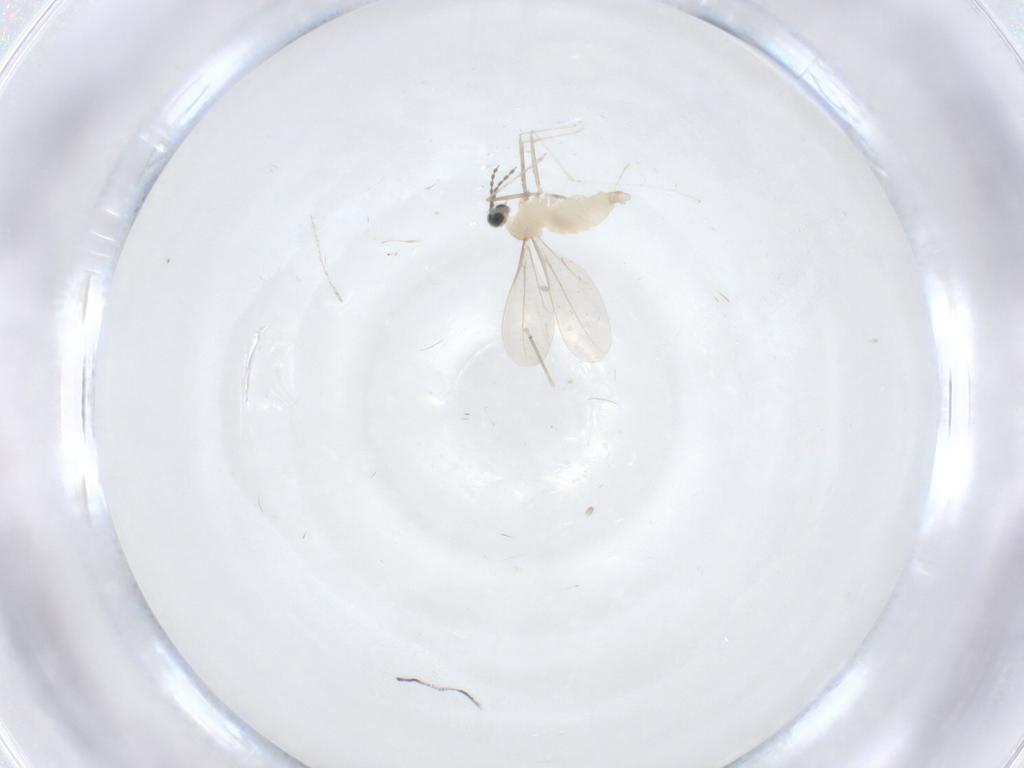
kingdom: Animalia
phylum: Arthropoda
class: Insecta
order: Diptera
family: Cecidomyiidae
